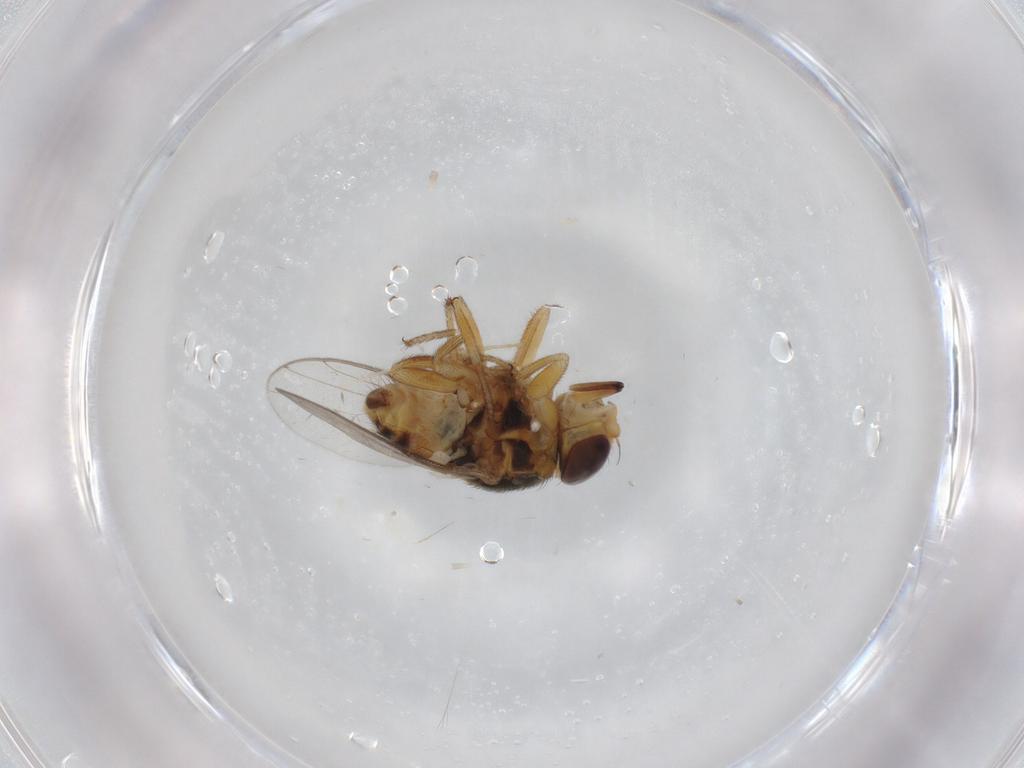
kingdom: Animalia
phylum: Arthropoda
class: Insecta
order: Diptera
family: Chloropidae
